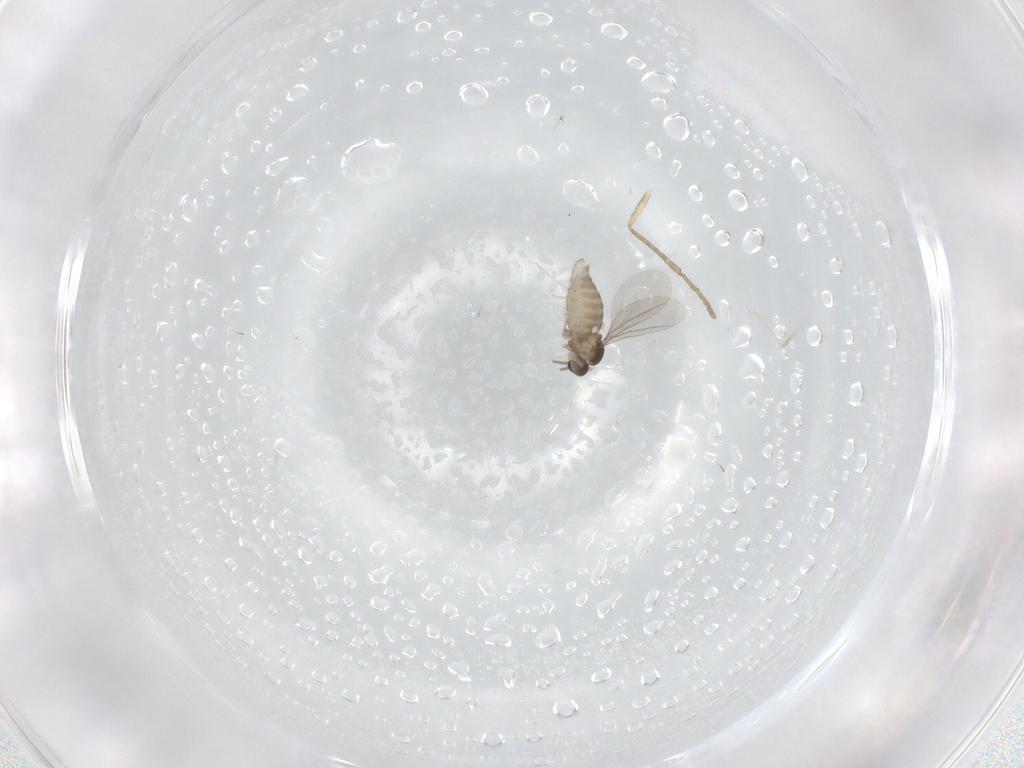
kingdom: Animalia
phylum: Arthropoda
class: Insecta
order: Diptera
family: Cecidomyiidae
